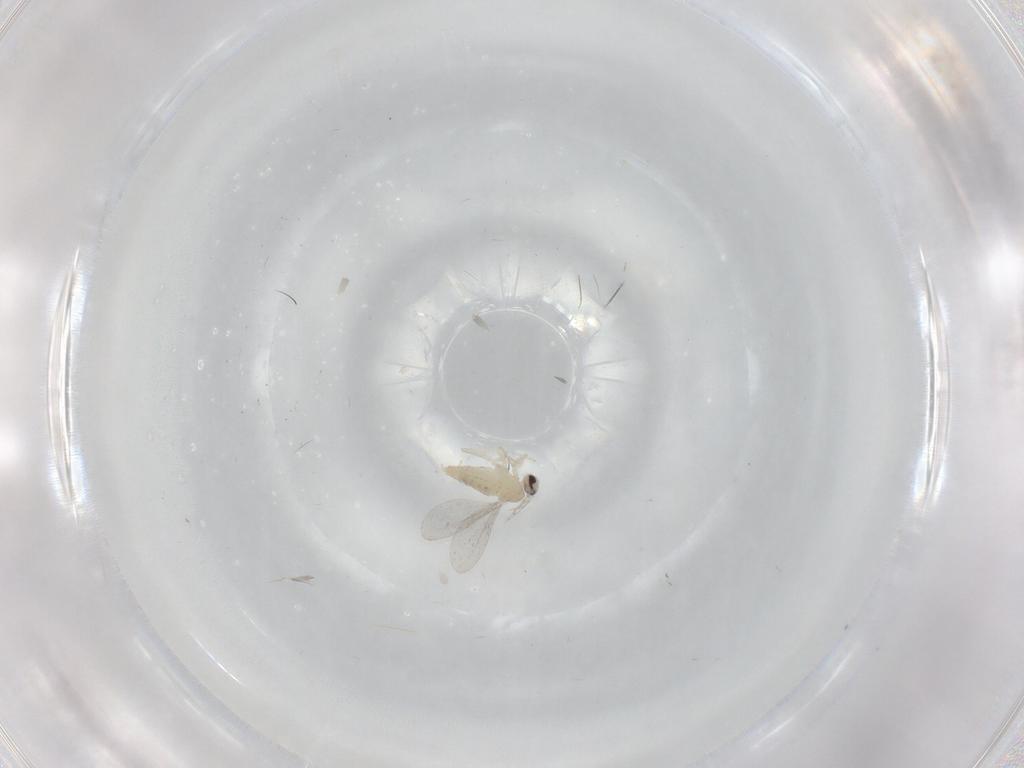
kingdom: Animalia
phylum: Arthropoda
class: Insecta
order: Diptera
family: Cecidomyiidae
